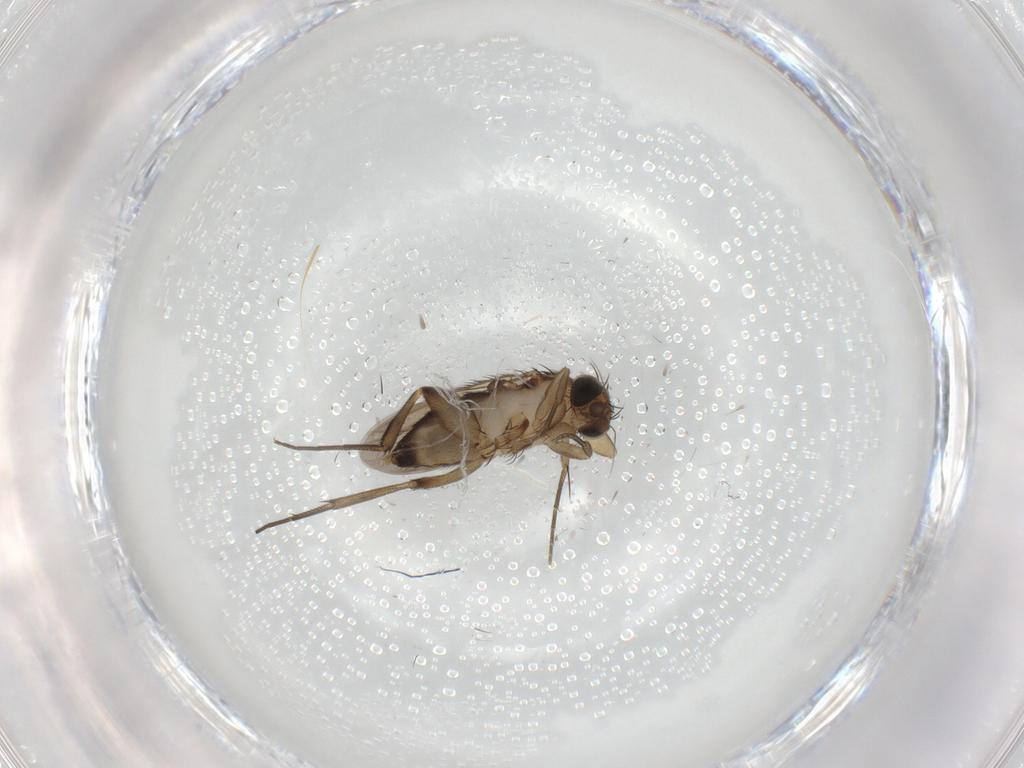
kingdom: Animalia
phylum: Arthropoda
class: Insecta
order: Diptera
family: Phoridae
